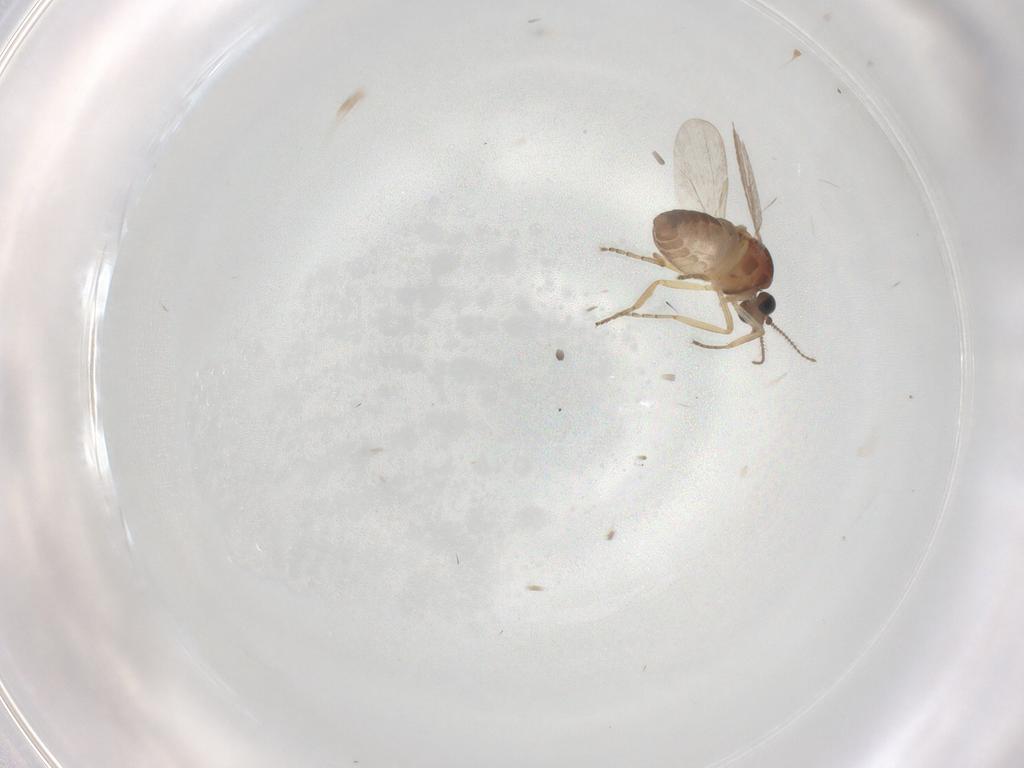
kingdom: Animalia
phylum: Arthropoda
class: Insecta
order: Diptera
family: Ceratopogonidae
